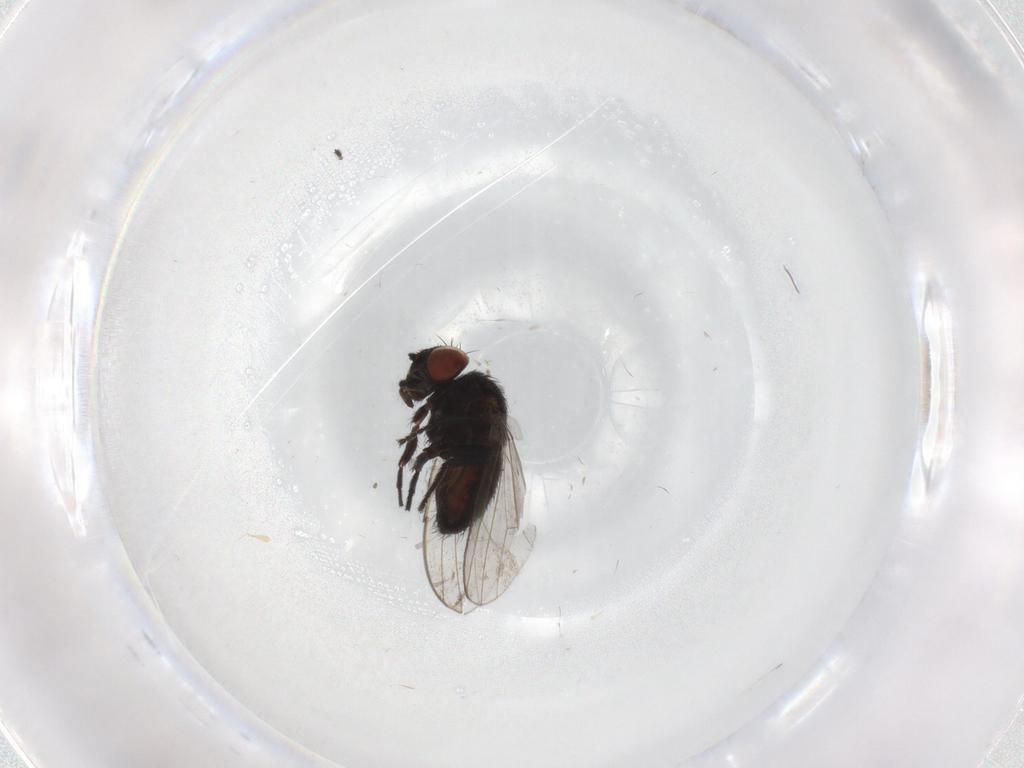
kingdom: Animalia
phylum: Arthropoda
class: Insecta
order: Diptera
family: Milichiidae
